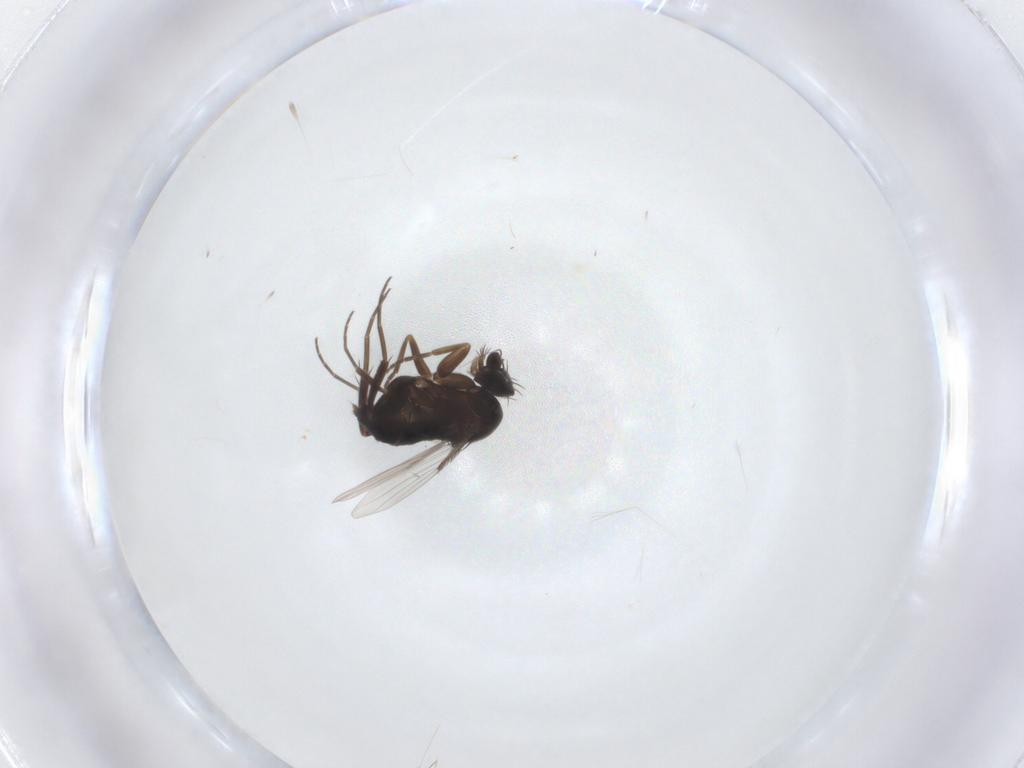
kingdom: Animalia
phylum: Arthropoda
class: Insecta
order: Diptera
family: Phoridae
